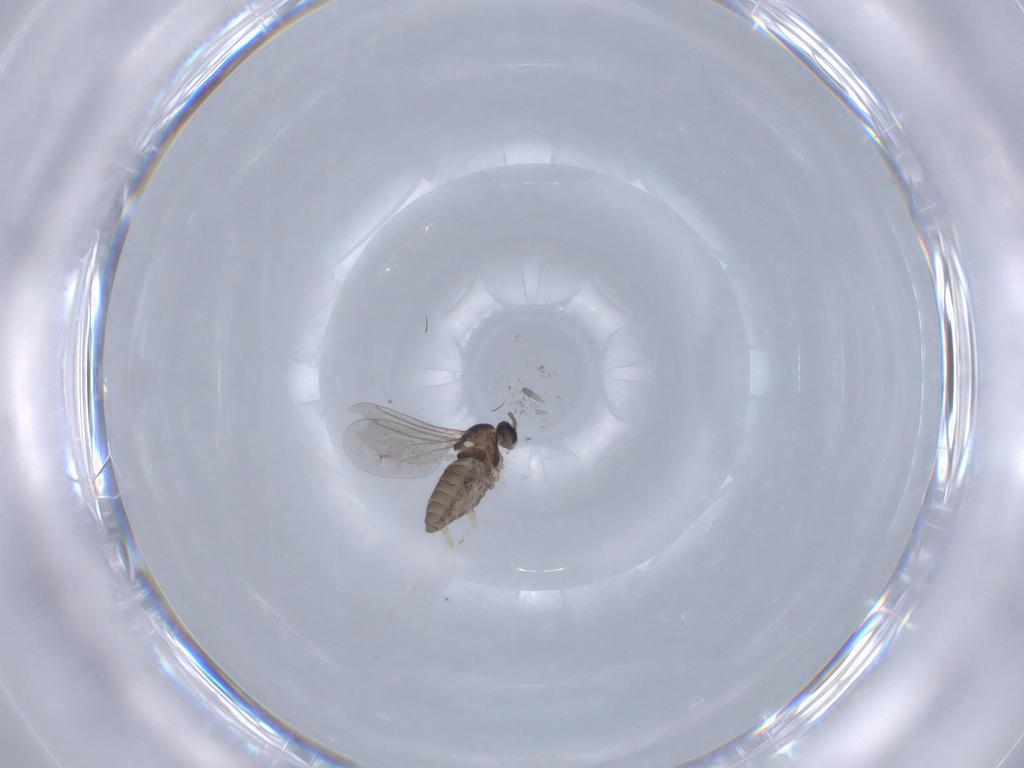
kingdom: Animalia
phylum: Arthropoda
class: Insecta
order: Diptera
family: Cecidomyiidae
